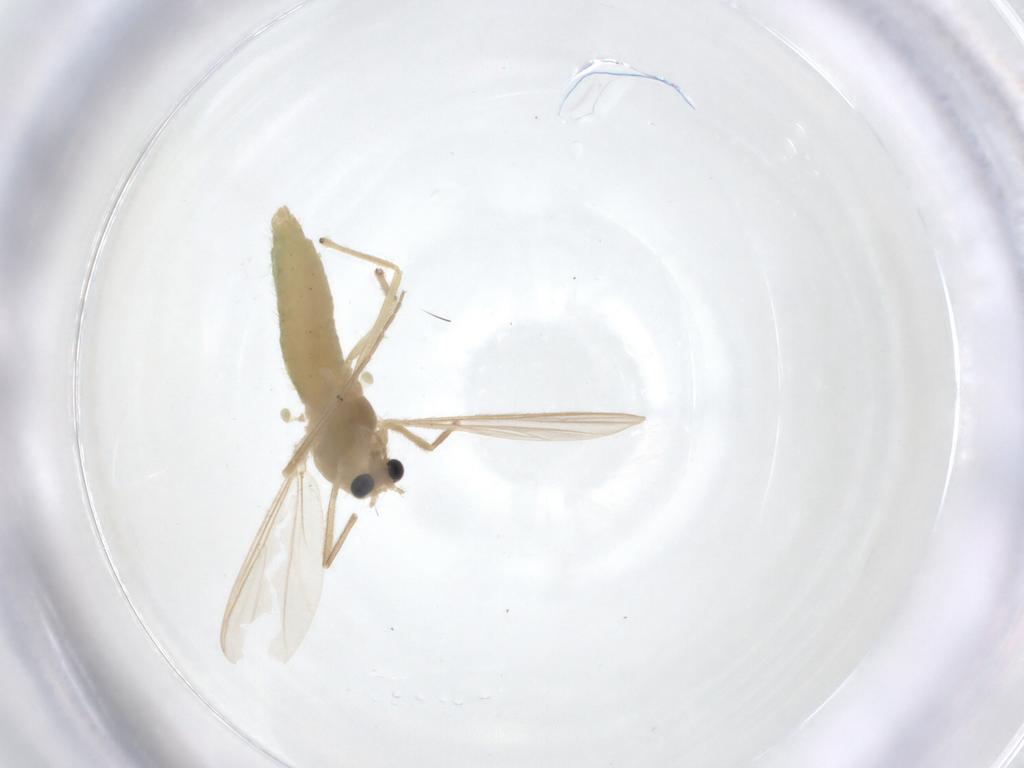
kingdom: Animalia
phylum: Arthropoda
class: Insecta
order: Diptera
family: Chironomidae
